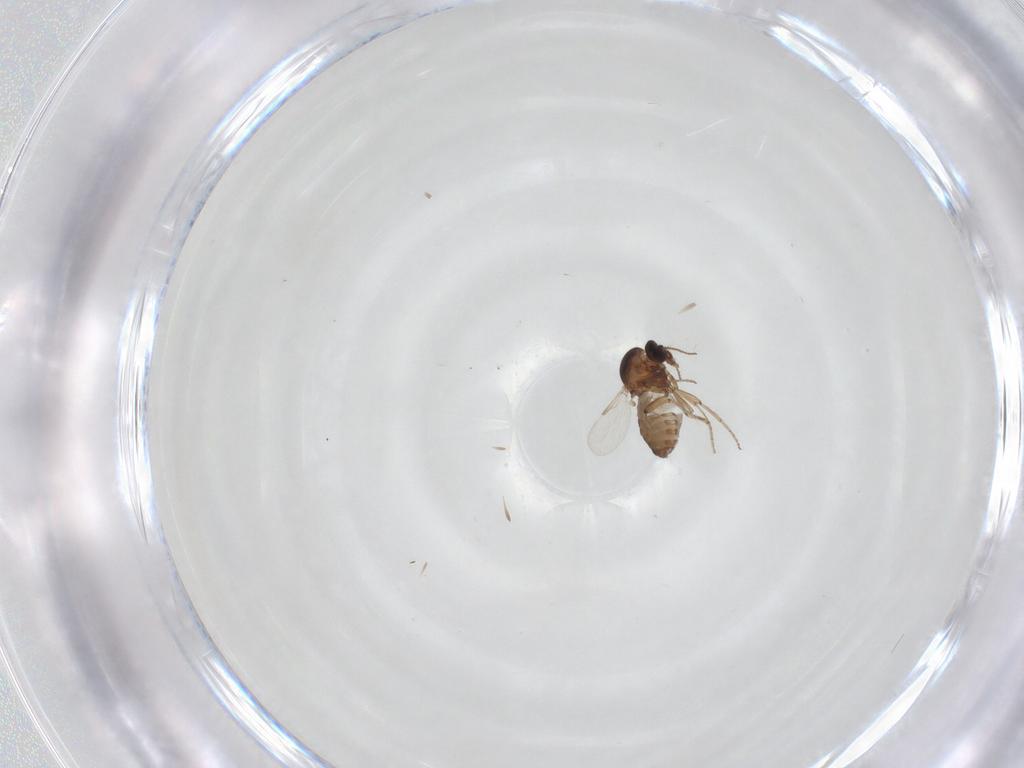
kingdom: Animalia
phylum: Arthropoda
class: Insecta
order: Diptera
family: Ceratopogonidae
